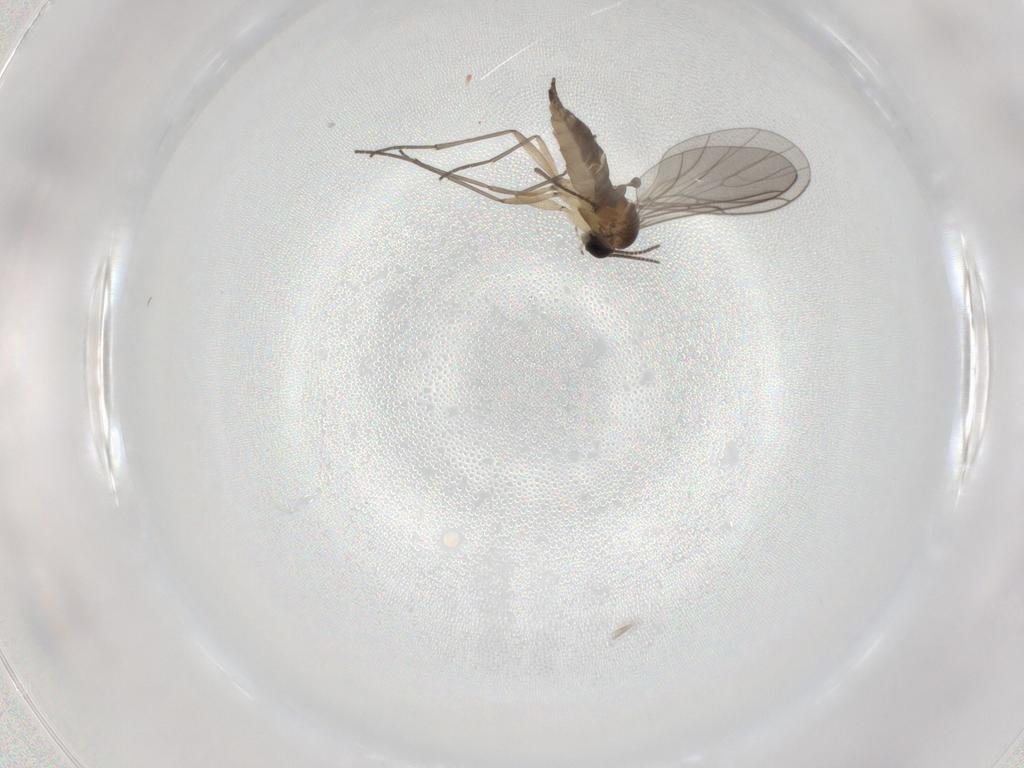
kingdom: Animalia
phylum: Arthropoda
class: Insecta
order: Diptera
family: Sciaridae
